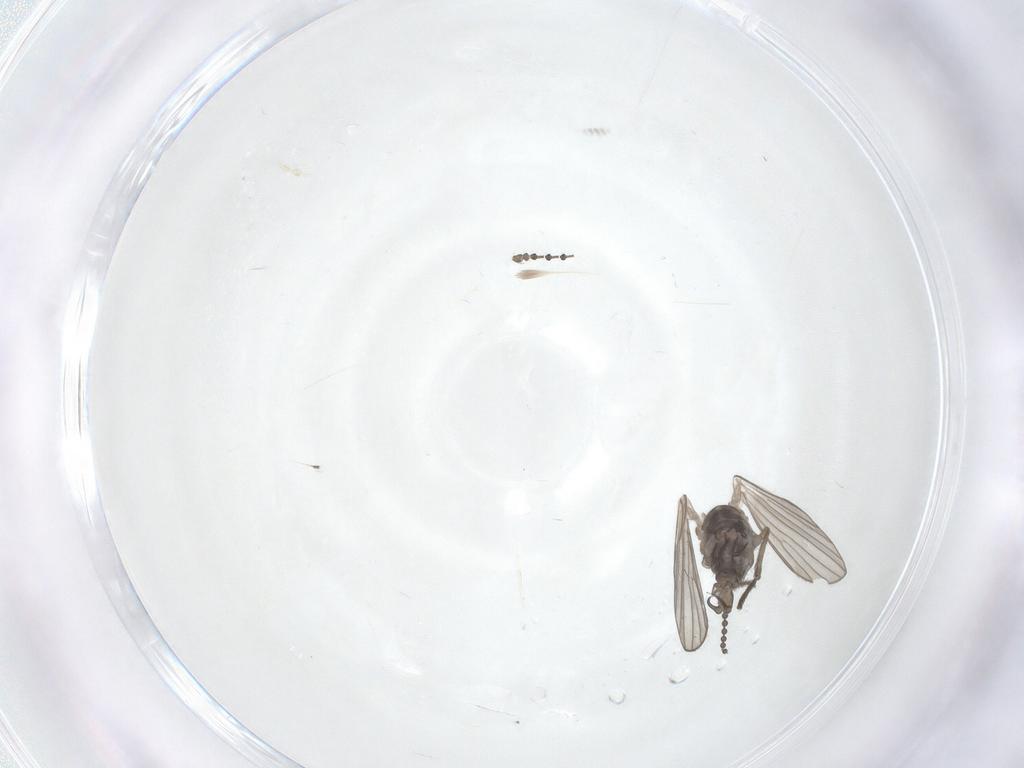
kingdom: Animalia
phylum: Arthropoda
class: Insecta
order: Diptera
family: Psychodidae
